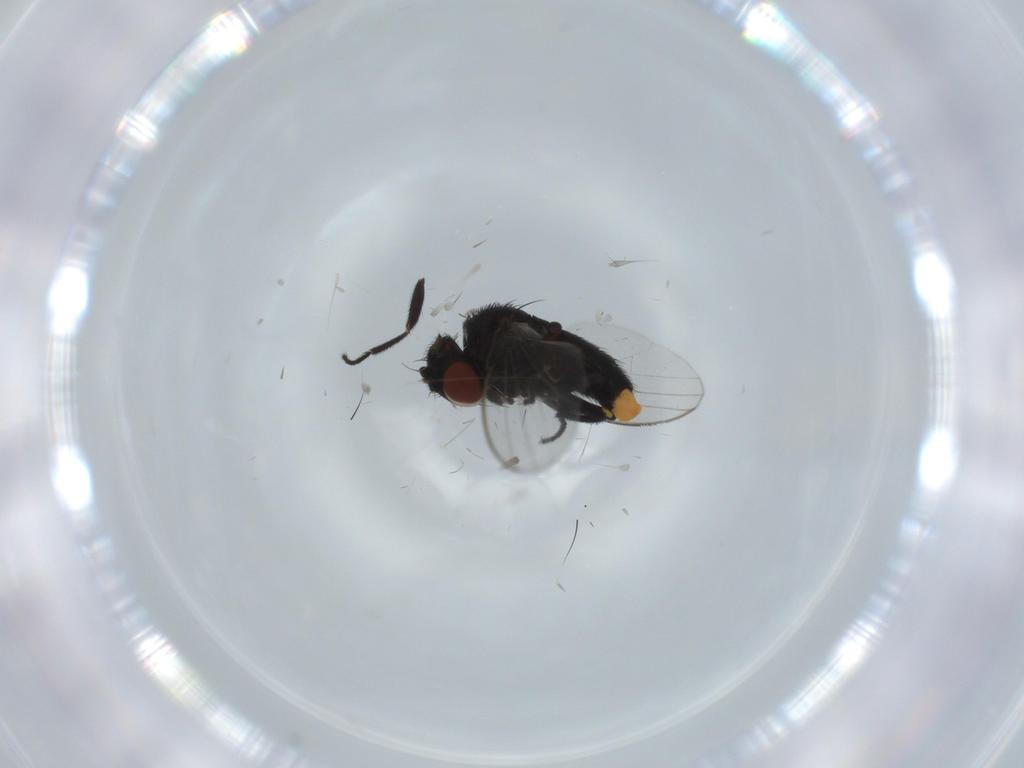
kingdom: Animalia
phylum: Arthropoda
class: Insecta
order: Diptera
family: Milichiidae
